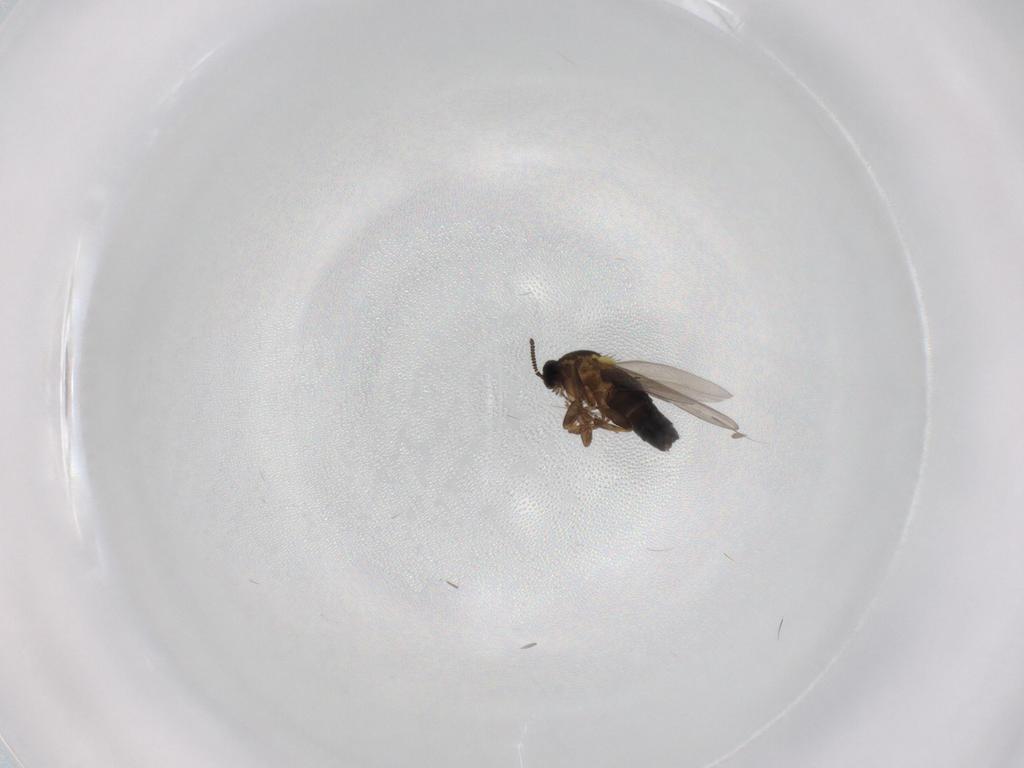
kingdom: Animalia
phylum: Arthropoda
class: Insecta
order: Diptera
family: Scatopsidae
